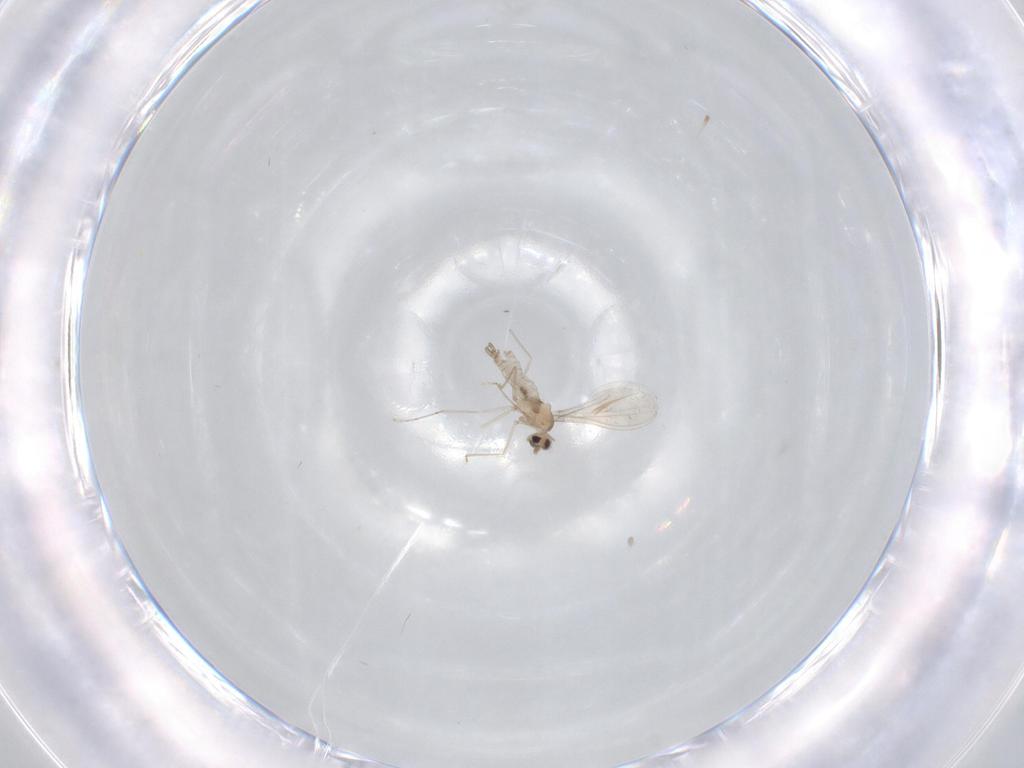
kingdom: Animalia
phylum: Arthropoda
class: Insecta
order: Diptera
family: Cecidomyiidae
